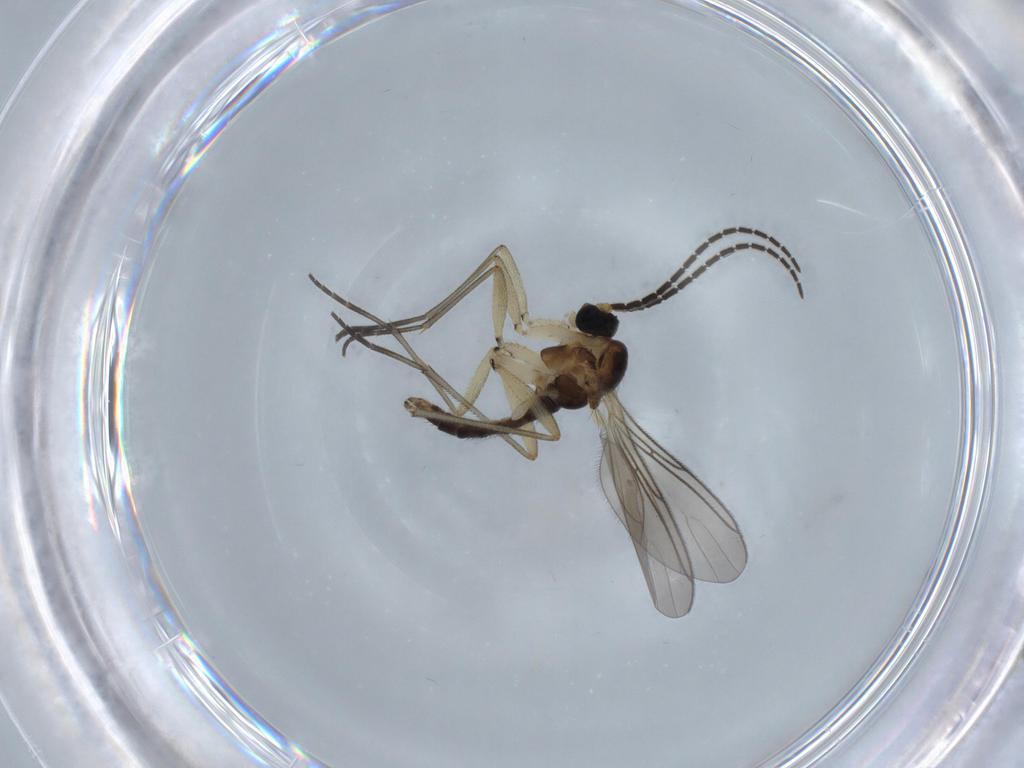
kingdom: Animalia
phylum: Arthropoda
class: Insecta
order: Diptera
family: Sciaridae
